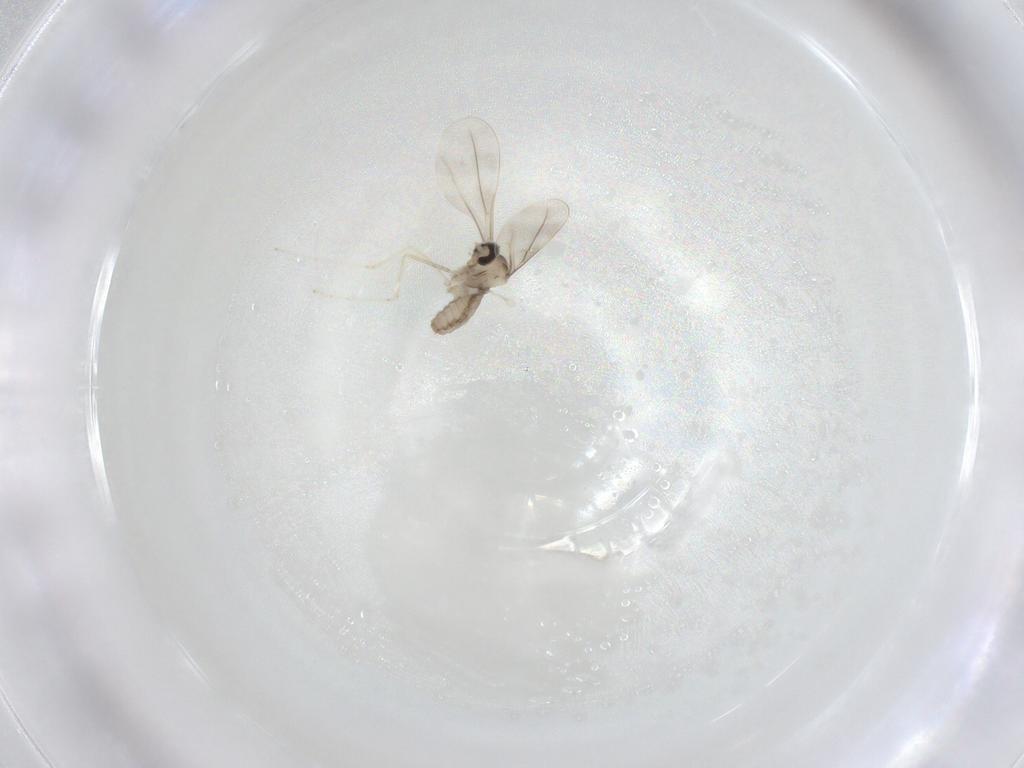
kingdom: Animalia
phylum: Arthropoda
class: Insecta
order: Diptera
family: Cecidomyiidae
